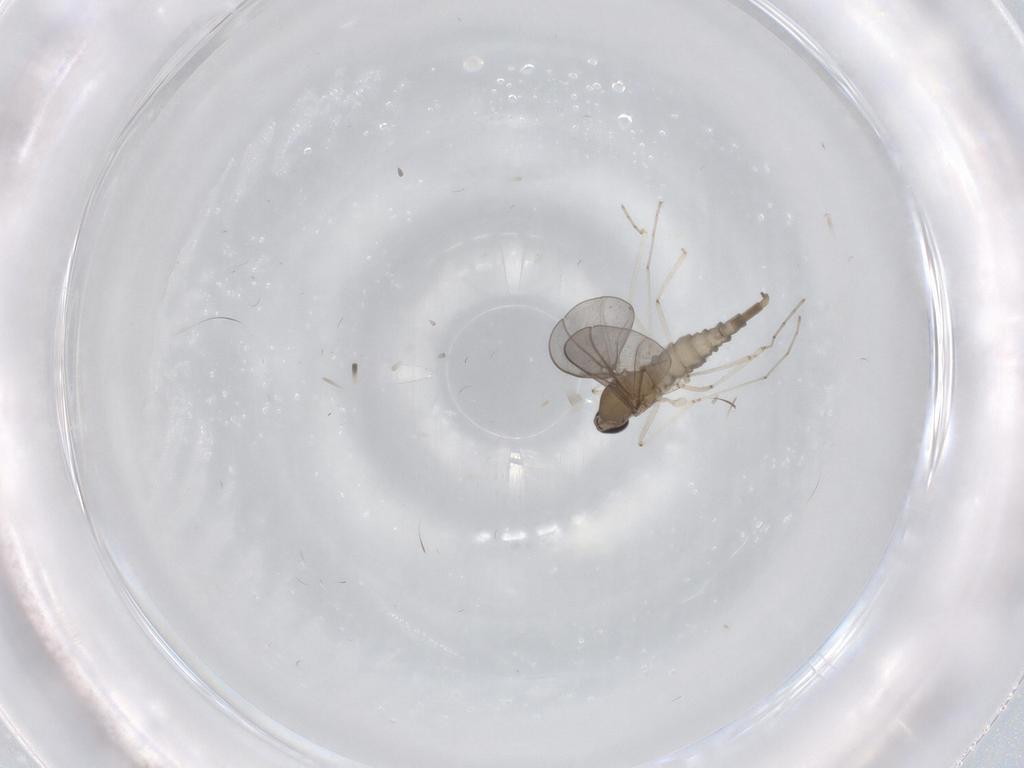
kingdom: Animalia
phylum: Arthropoda
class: Insecta
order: Diptera
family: Cecidomyiidae
